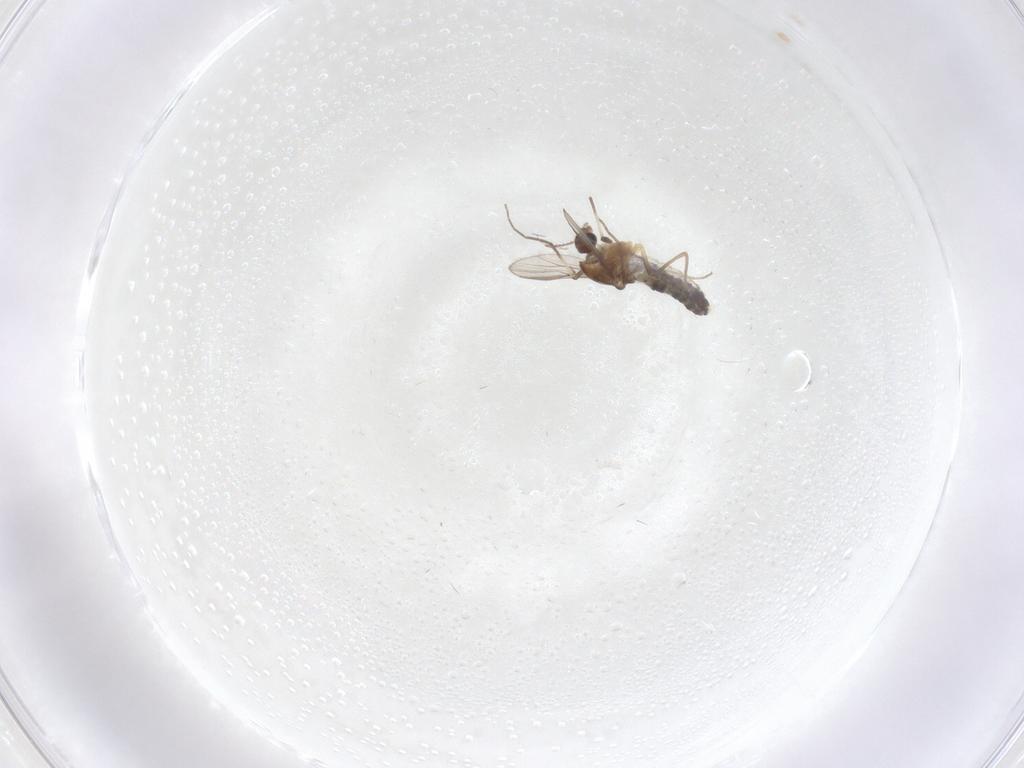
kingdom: Animalia
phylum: Arthropoda
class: Insecta
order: Diptera
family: Chironomidae
